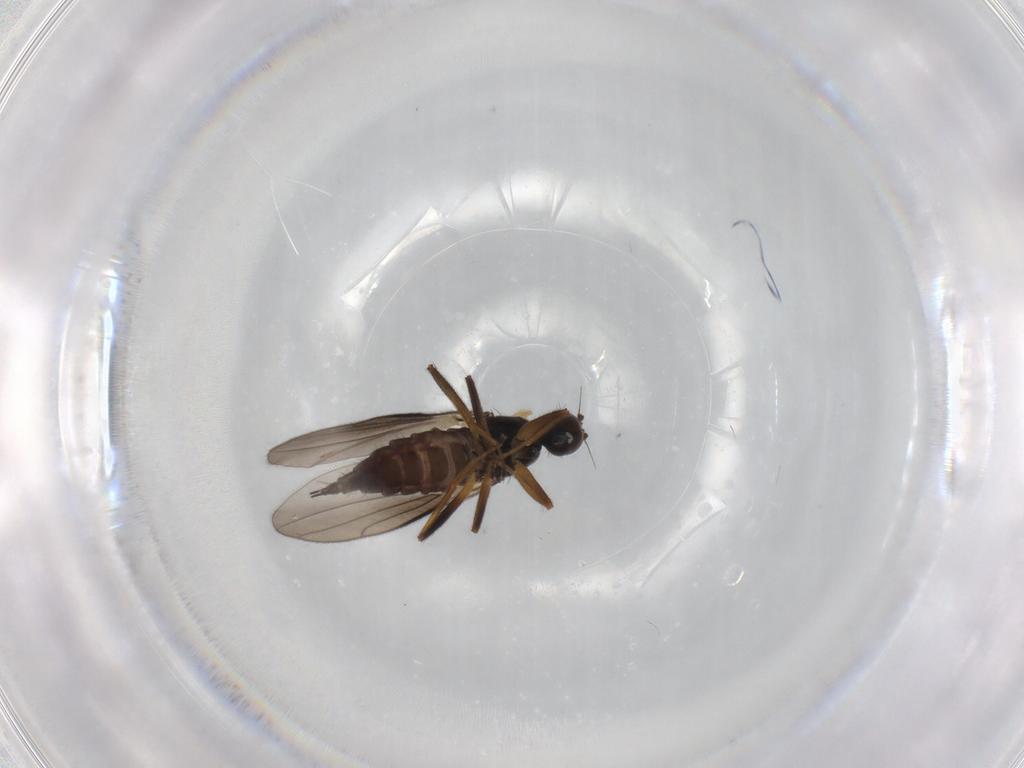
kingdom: Animalia
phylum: Arthropoda
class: Insecta
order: Diptera
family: Hybotidae
